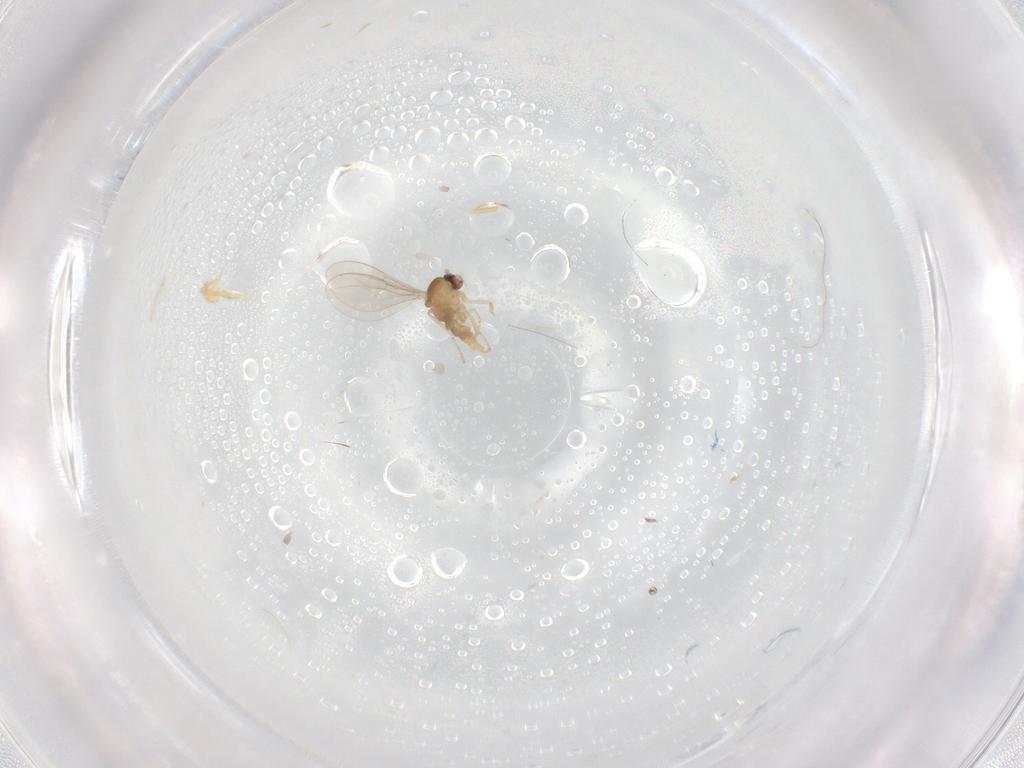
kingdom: Animalia
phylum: Arthropoda
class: Insecta
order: Diptera
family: Cecidomyiidae
